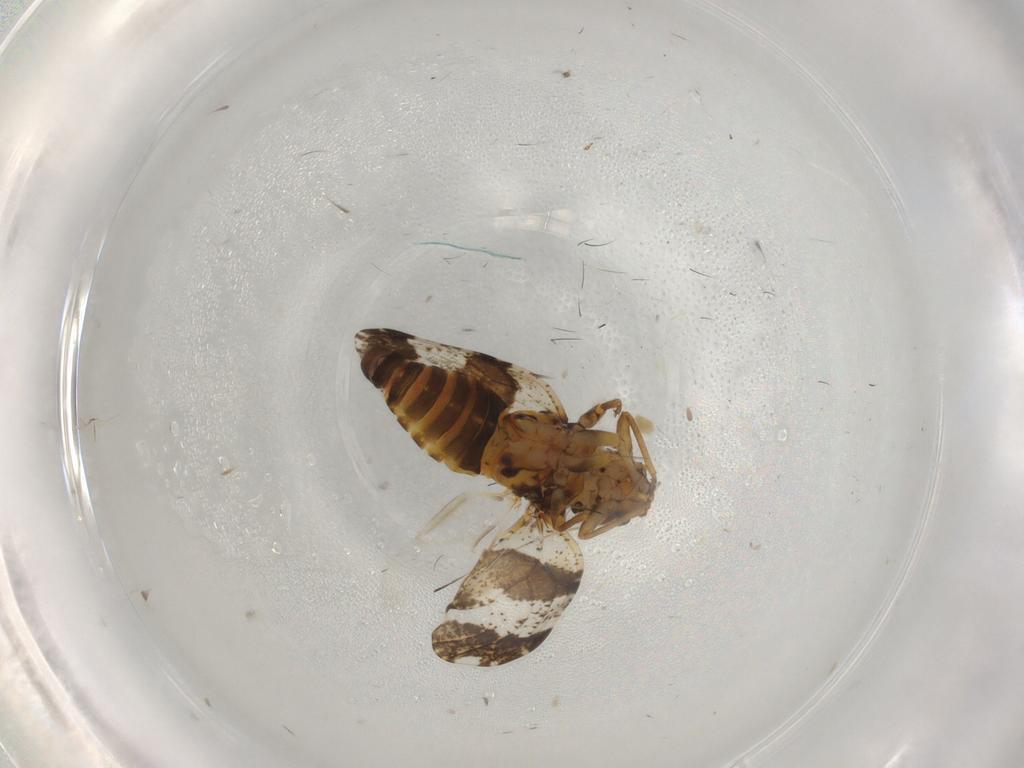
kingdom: Animalia
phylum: Arthropoda
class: Insecta
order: Hemiptera
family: Psyllidae
